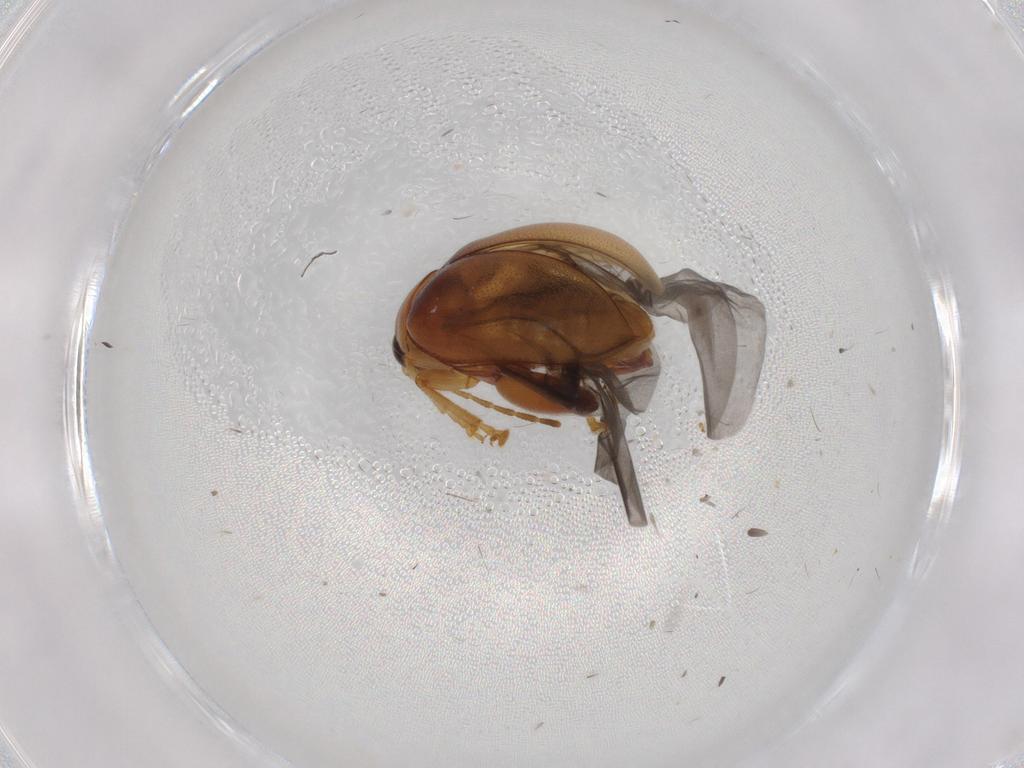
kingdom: Animalia
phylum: Arthropoda
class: Insecta
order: Coleoptera
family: Chrysomelidae
